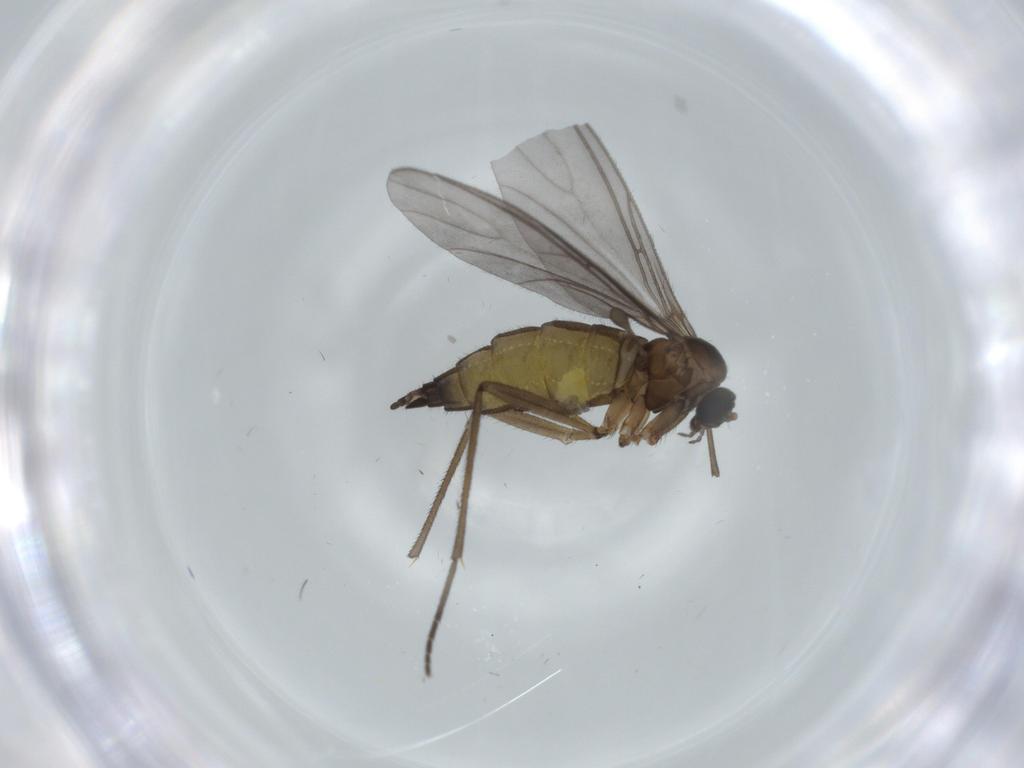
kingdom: Animalia
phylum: Arthropoda
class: Insecta
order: Diptera
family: Sciaridae
